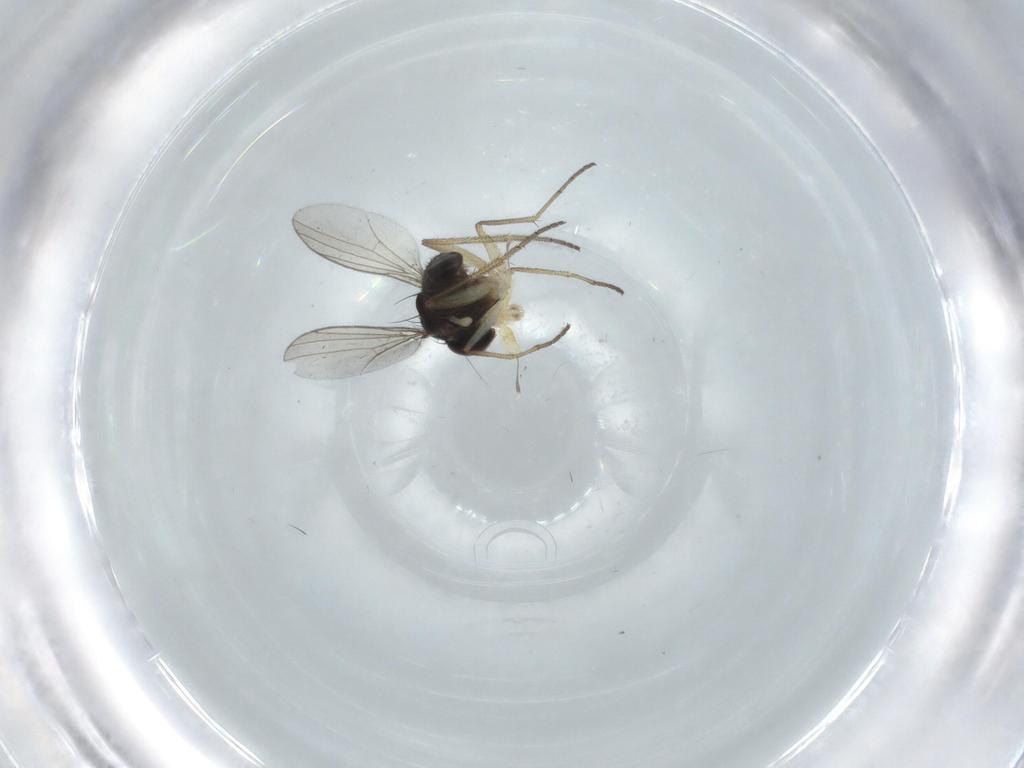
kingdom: Animalia
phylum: Arthropoda
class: Insecta
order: Diptera
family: Dolichopodidae
